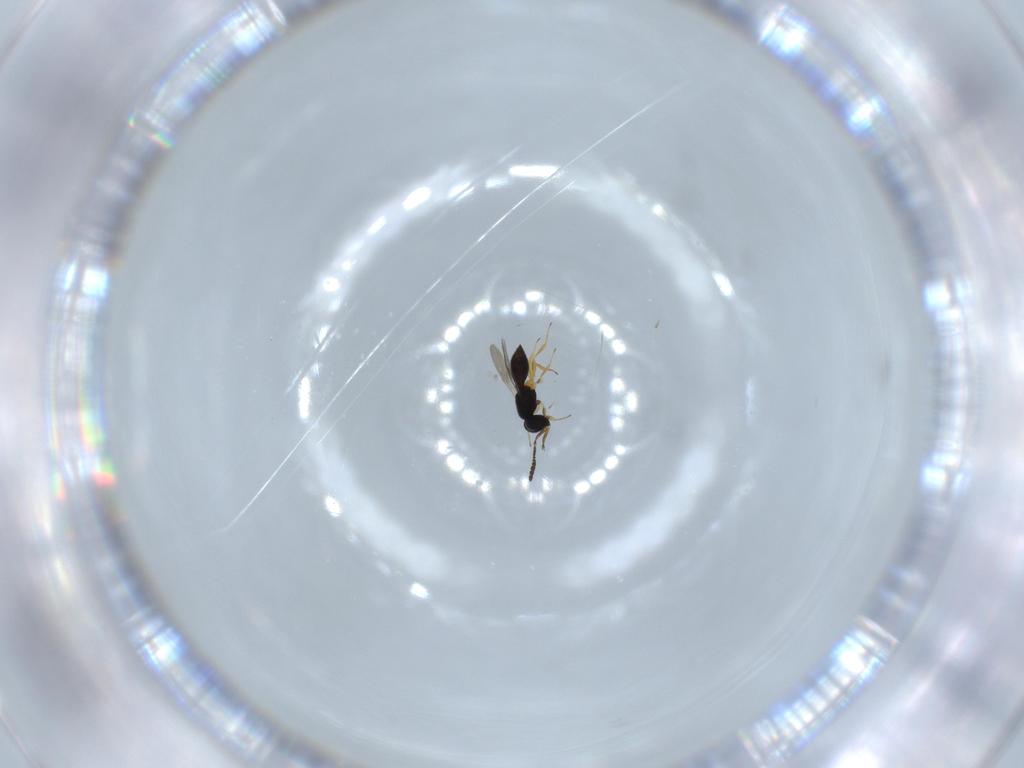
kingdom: Animalia
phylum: Arthropoda
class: Insecta
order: Hymenoptera
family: Scelionidae
